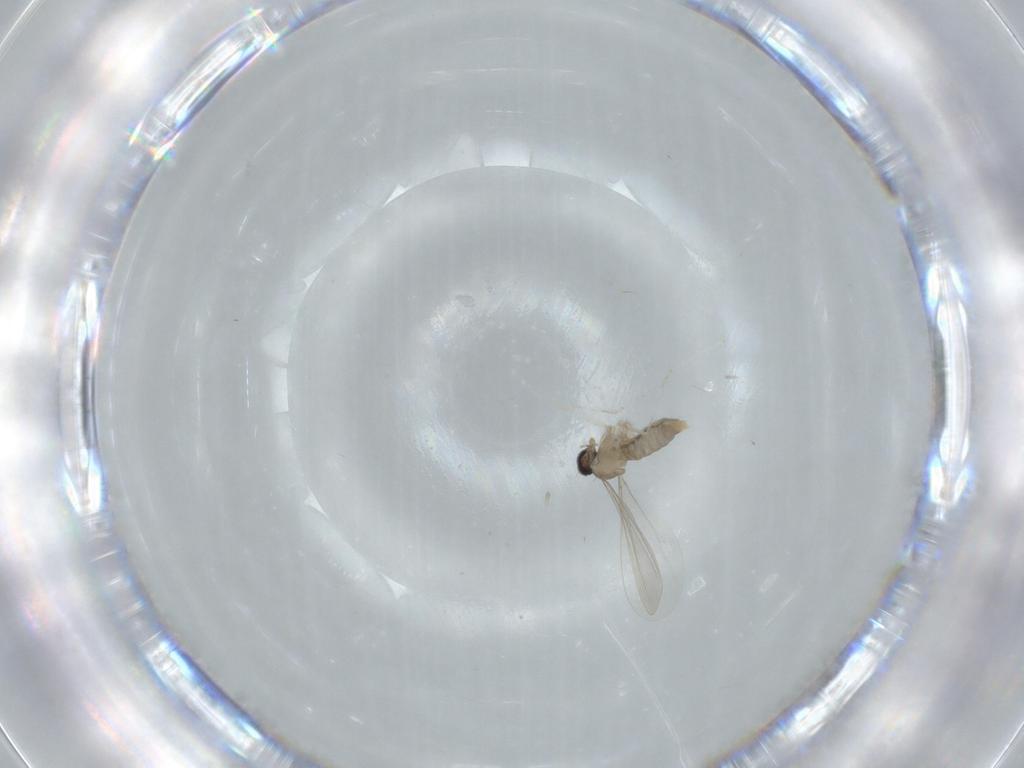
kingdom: Animalia
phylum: Arthropoda
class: Insecta
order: Diptera
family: Cecidomyiidae
